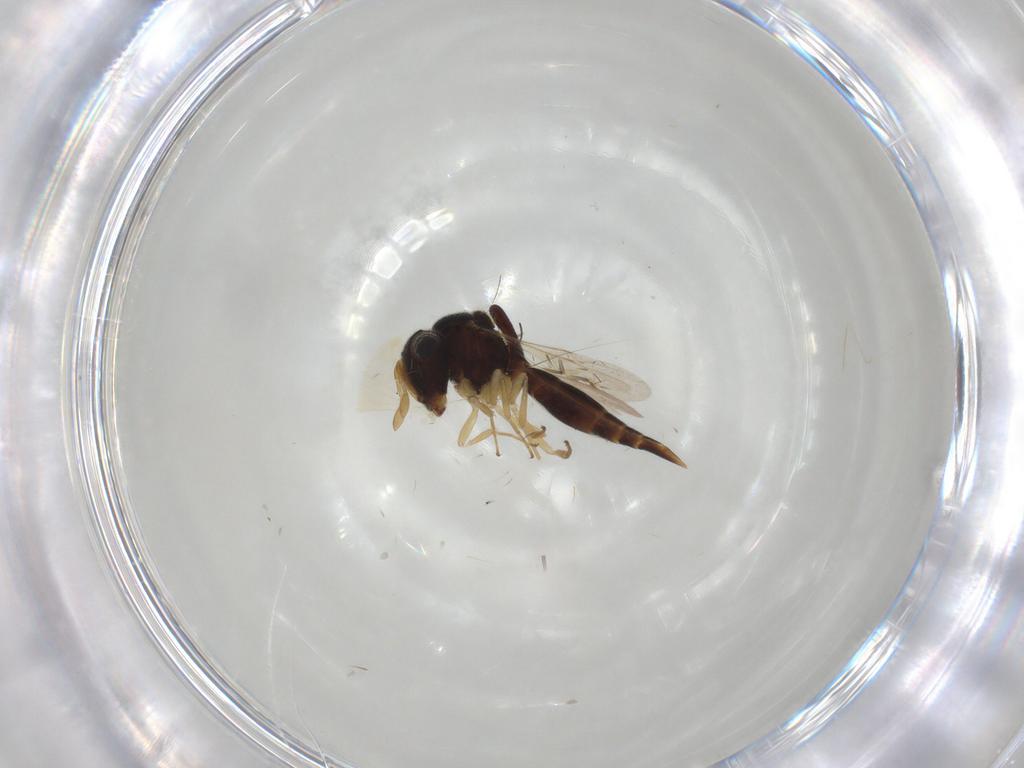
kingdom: Animalia
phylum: Arthropoda
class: Insecta
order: Hymenoptera
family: Scelionidae
